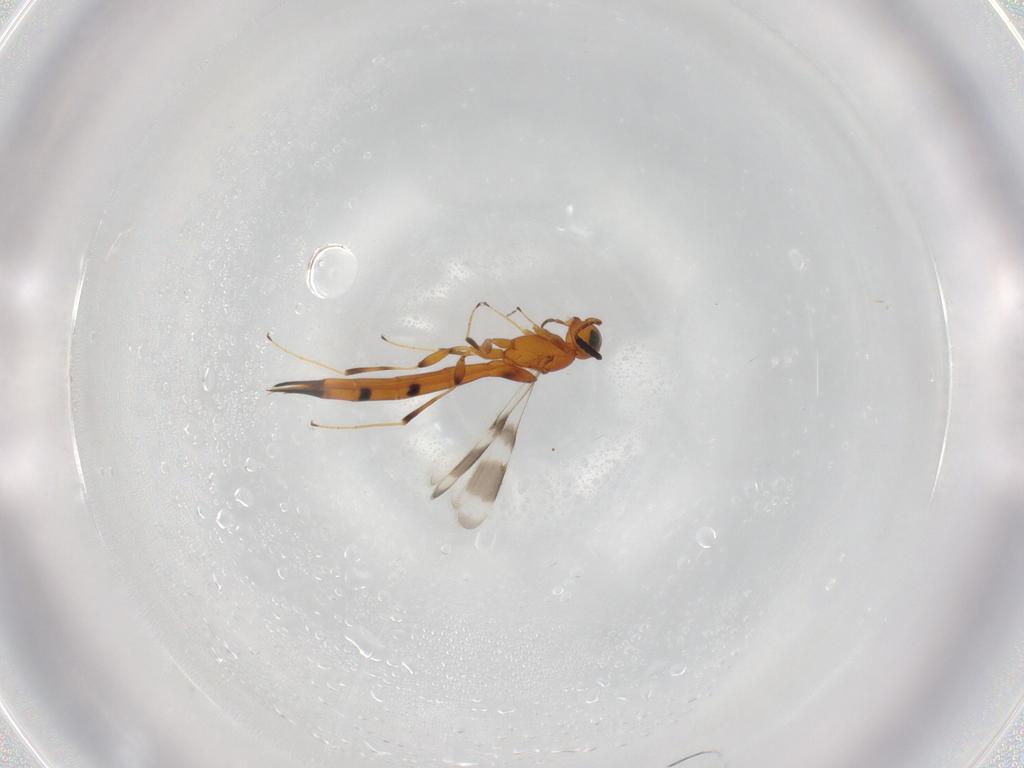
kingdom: Animalia
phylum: Arthropoda
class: Insecta
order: Hymenoptera
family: Scelionidae
